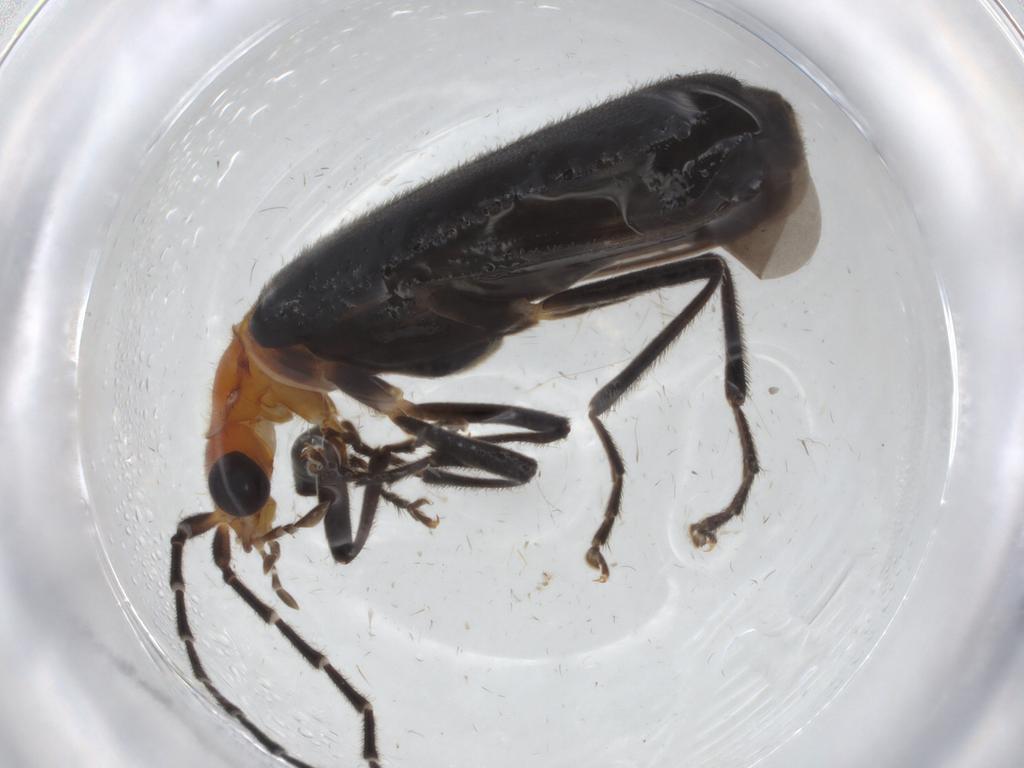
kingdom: Animalia
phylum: Arthropoda
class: Insecta
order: Coleoptera
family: Cantharidae
